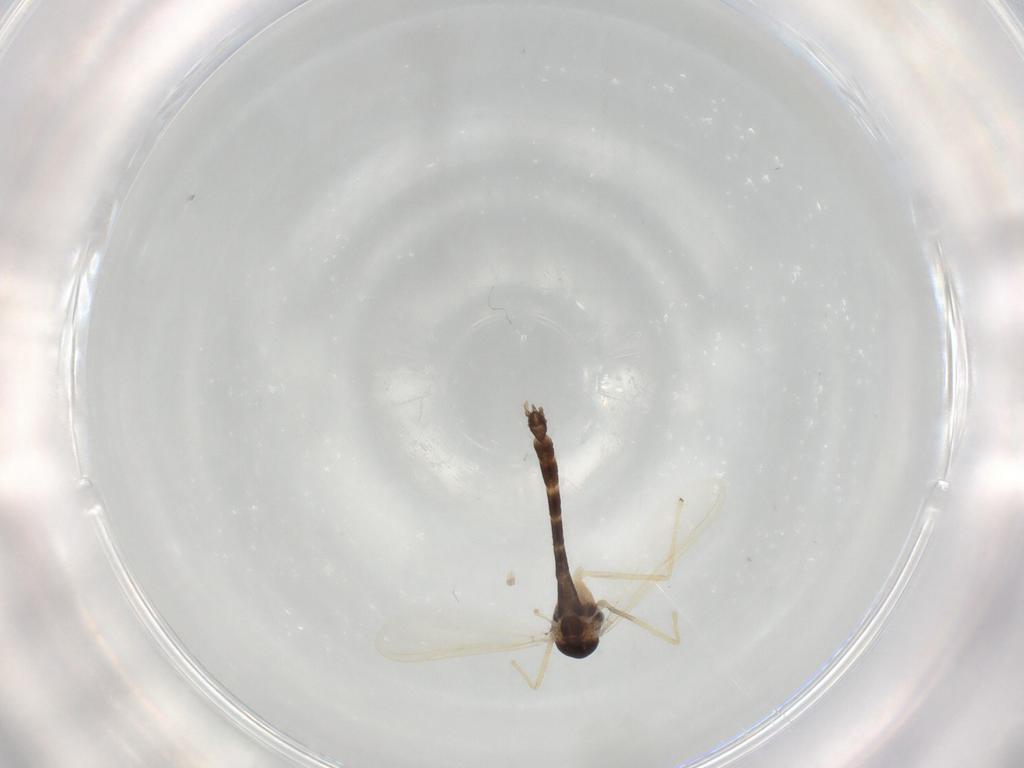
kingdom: Animalia
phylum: Arthropoda
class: Insecta
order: Diptera
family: Chironomidae
